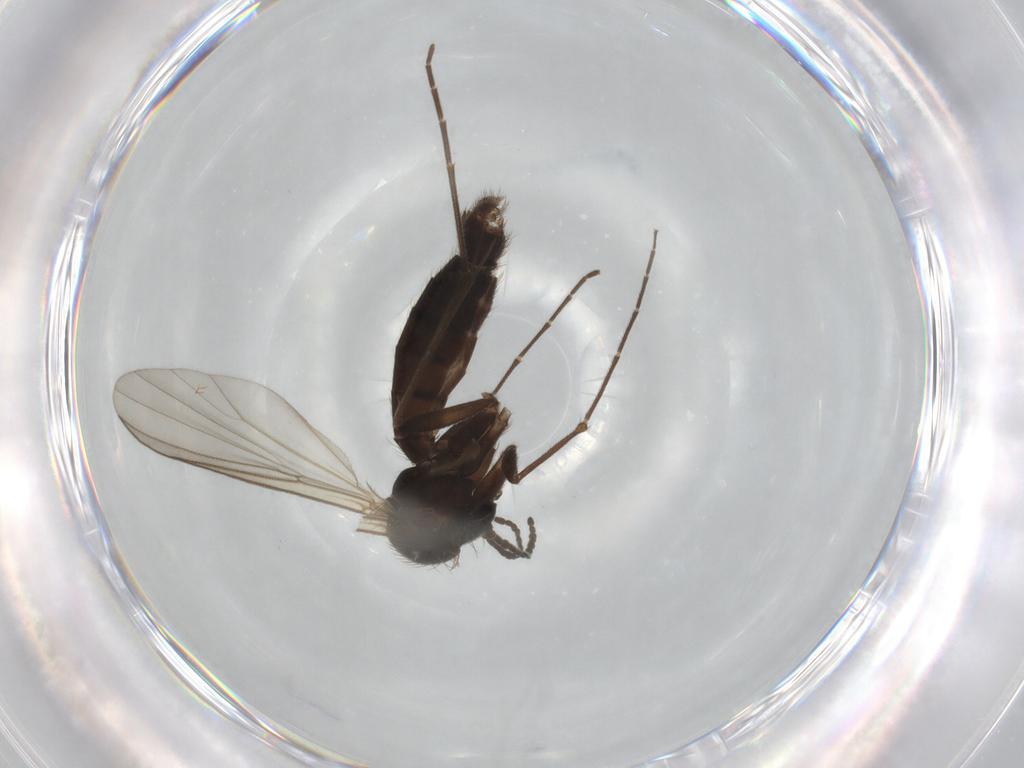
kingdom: Animalia
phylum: Arthropoda
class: Insecta
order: Diptera
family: Mycetophilidae
